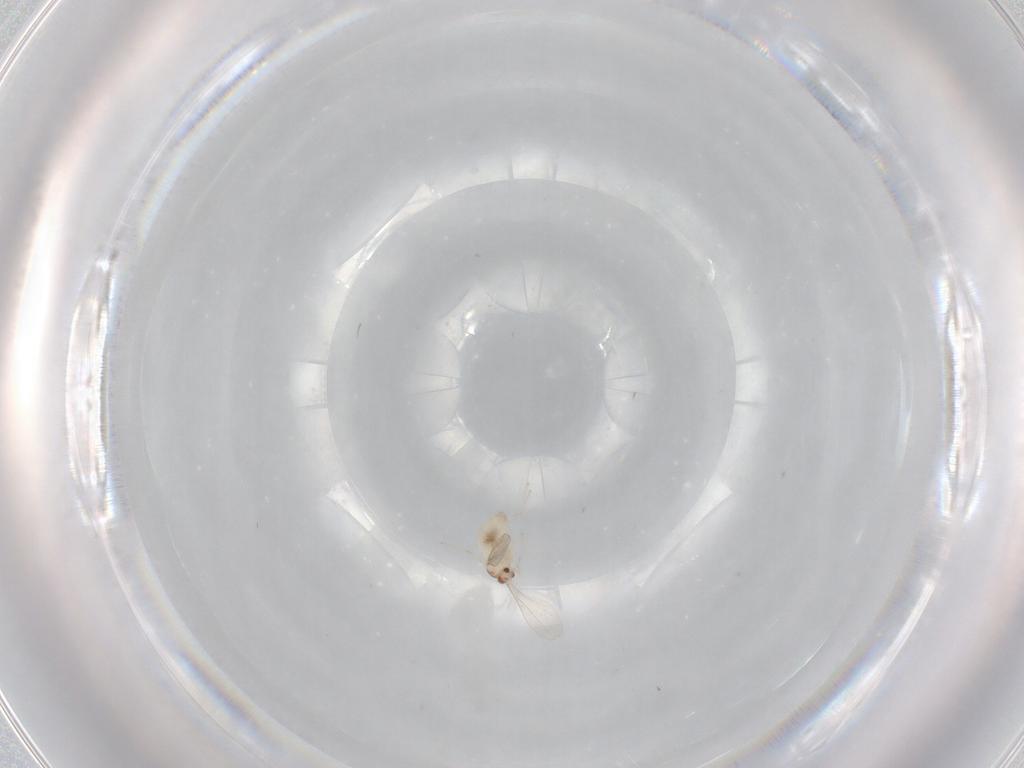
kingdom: Animalia
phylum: Arthropoda
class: Insecta
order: Diptera
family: Cecidomyiidae
